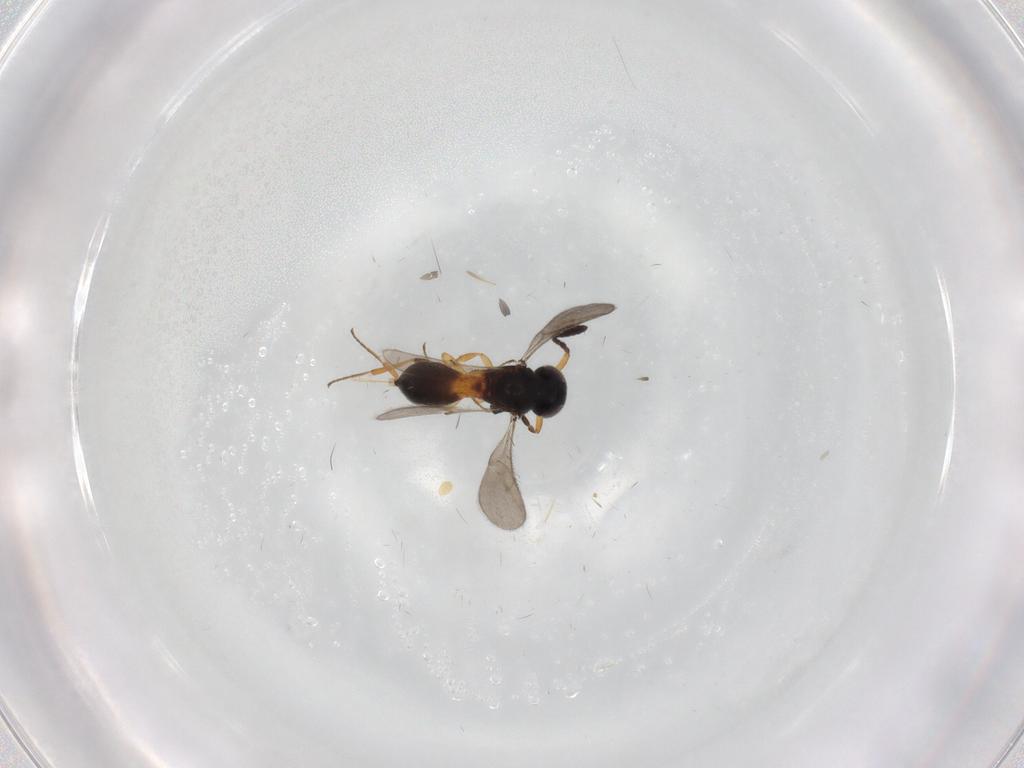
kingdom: Animalia
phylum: Arthropoda
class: Insecta
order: Hymenoptera
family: Scelionidae
